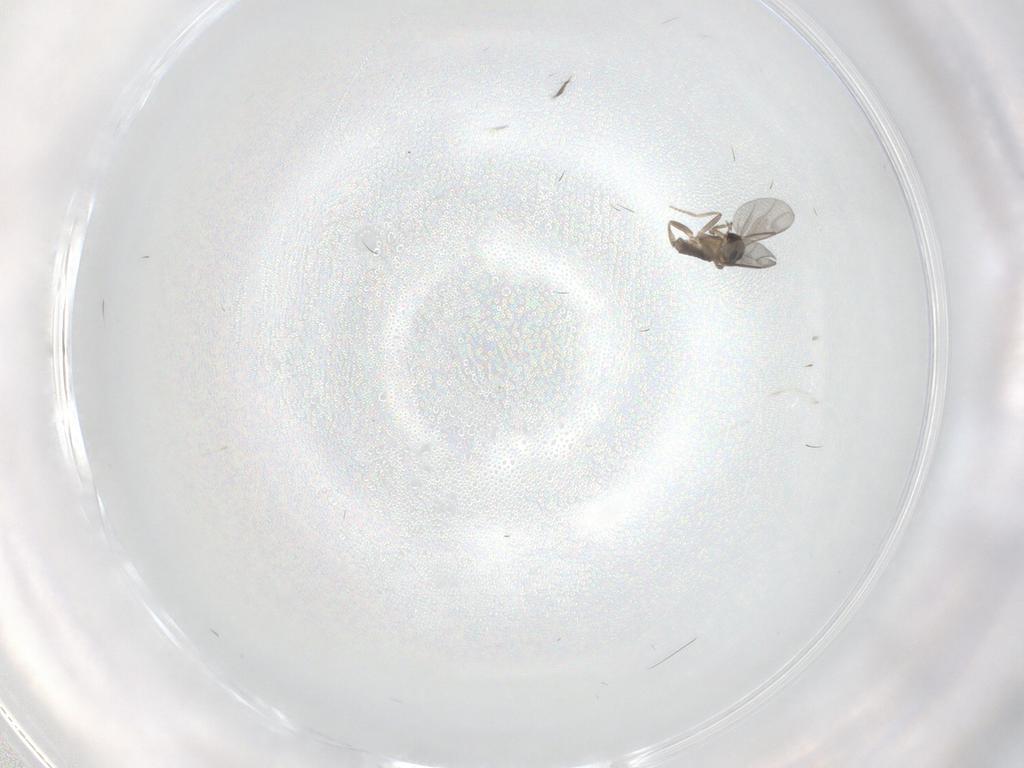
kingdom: Animalia
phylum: Arthropoda
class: Insecta
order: Diptera
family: Cecidomyiidae
